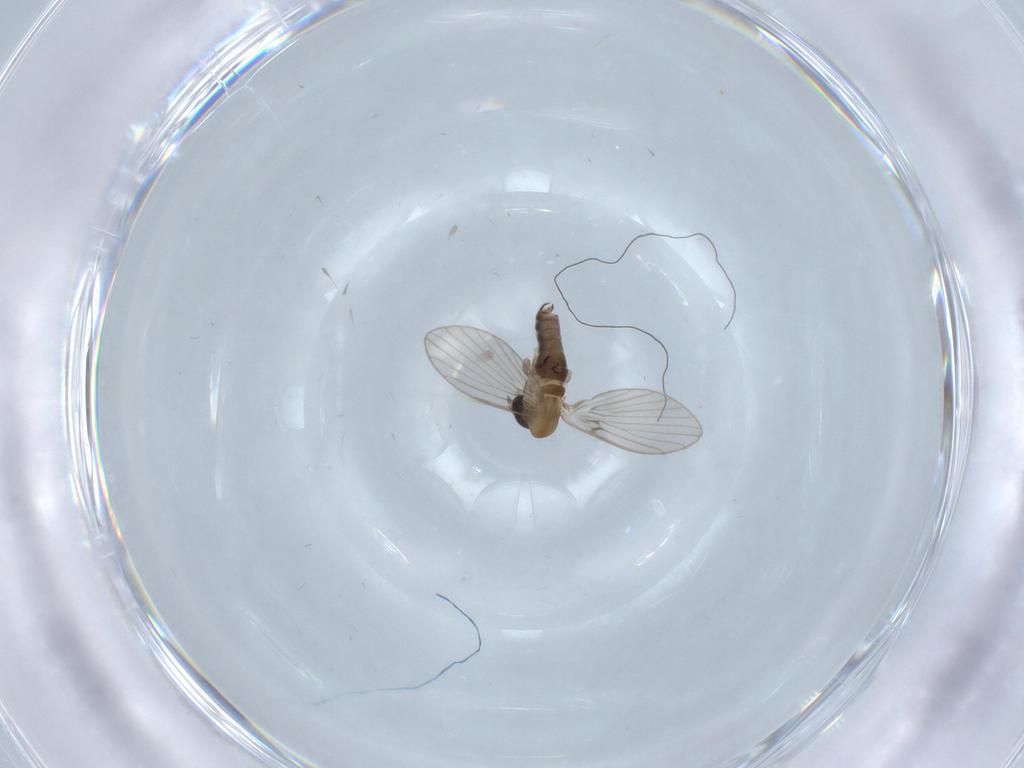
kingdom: Animalia
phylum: Arthropoda
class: Insecta
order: Diptera
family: Psychodidae
